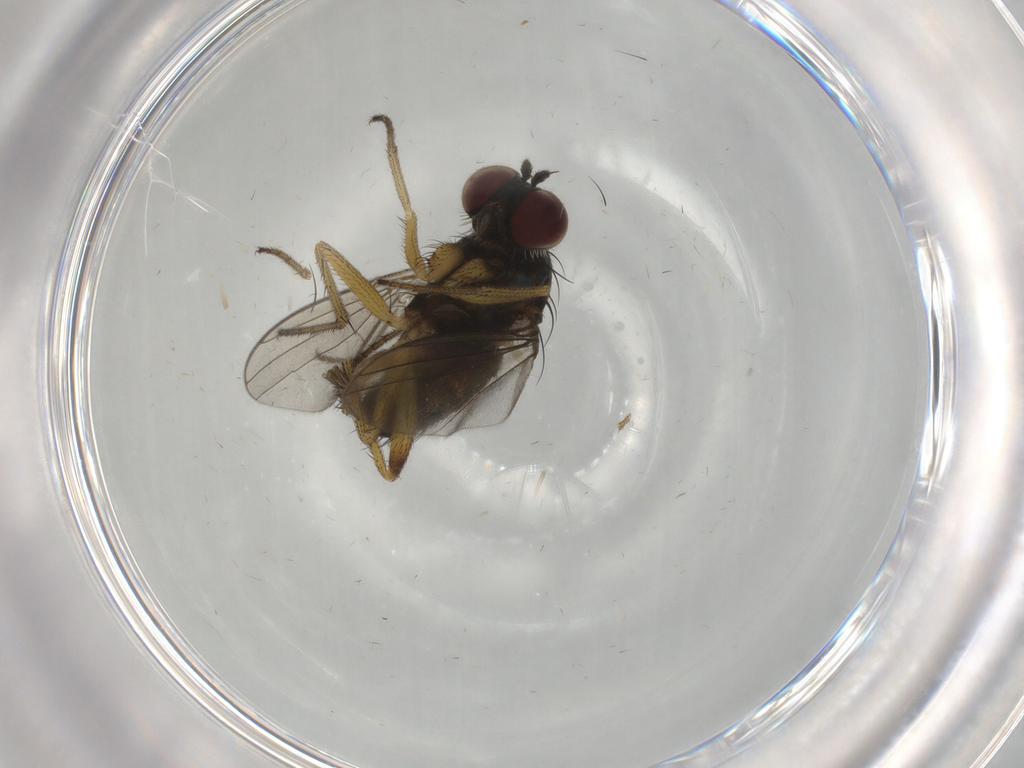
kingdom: Animalia
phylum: Arthropoda
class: Insecta
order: Diptera
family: Dolichopodidae
